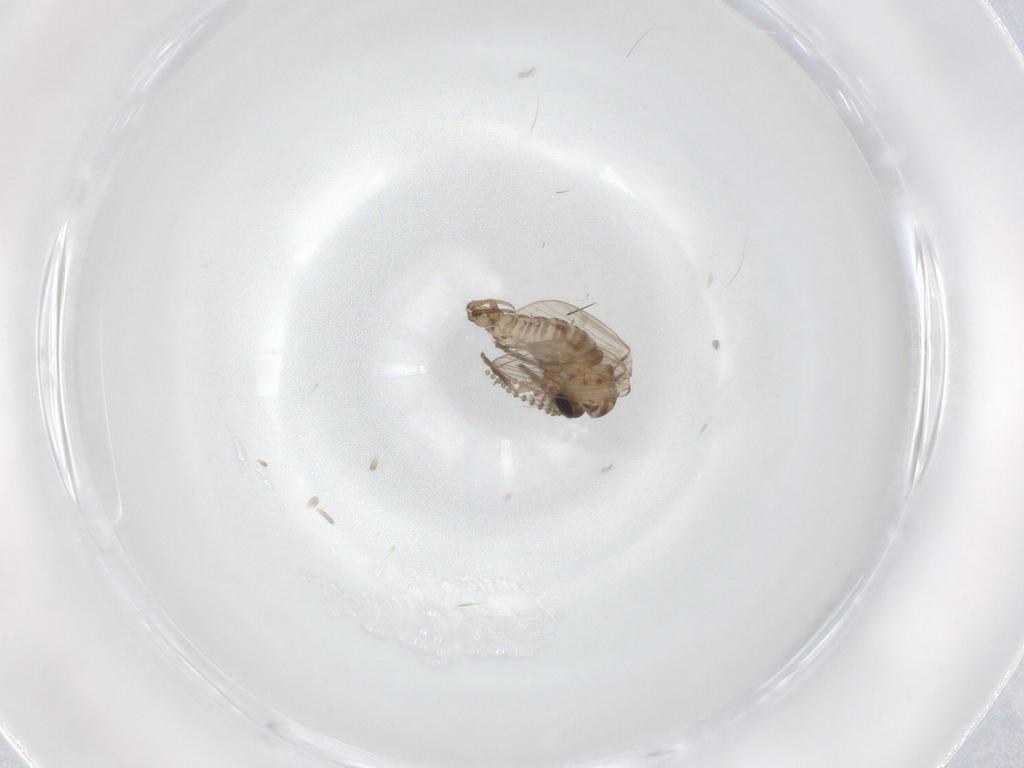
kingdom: Animalia
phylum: Arthropoda
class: Insecta
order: Diptera
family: Psychodidae
